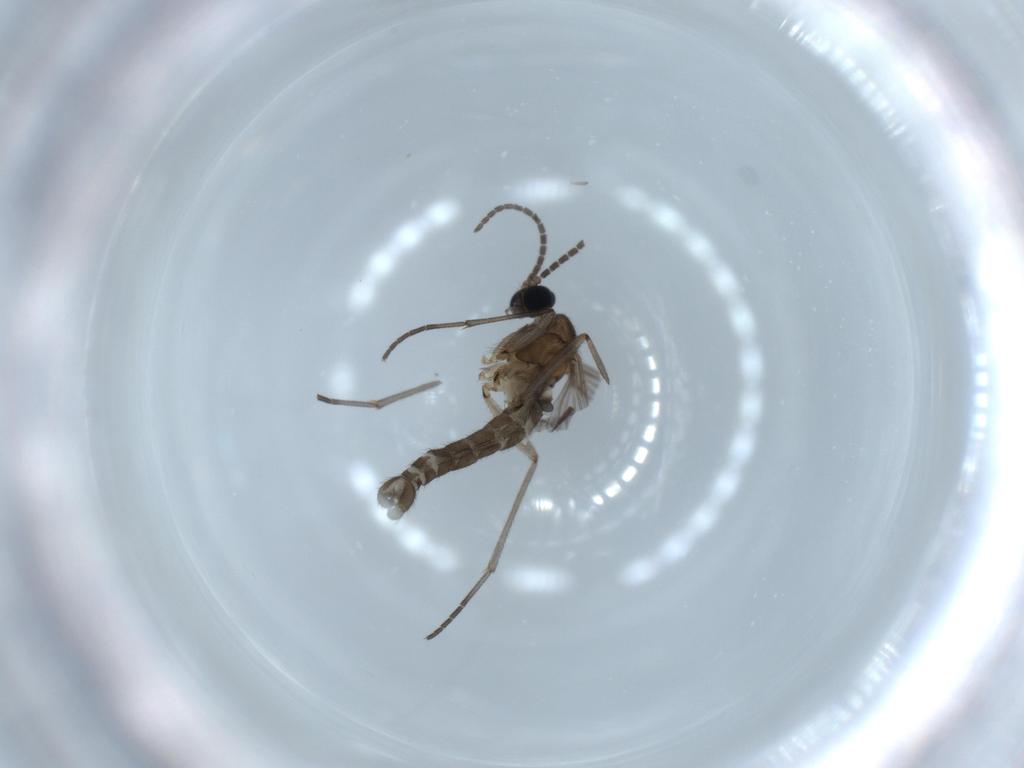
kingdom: Animalia
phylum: Arthropoda
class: Insecta
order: Diptera
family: Sciaridae
